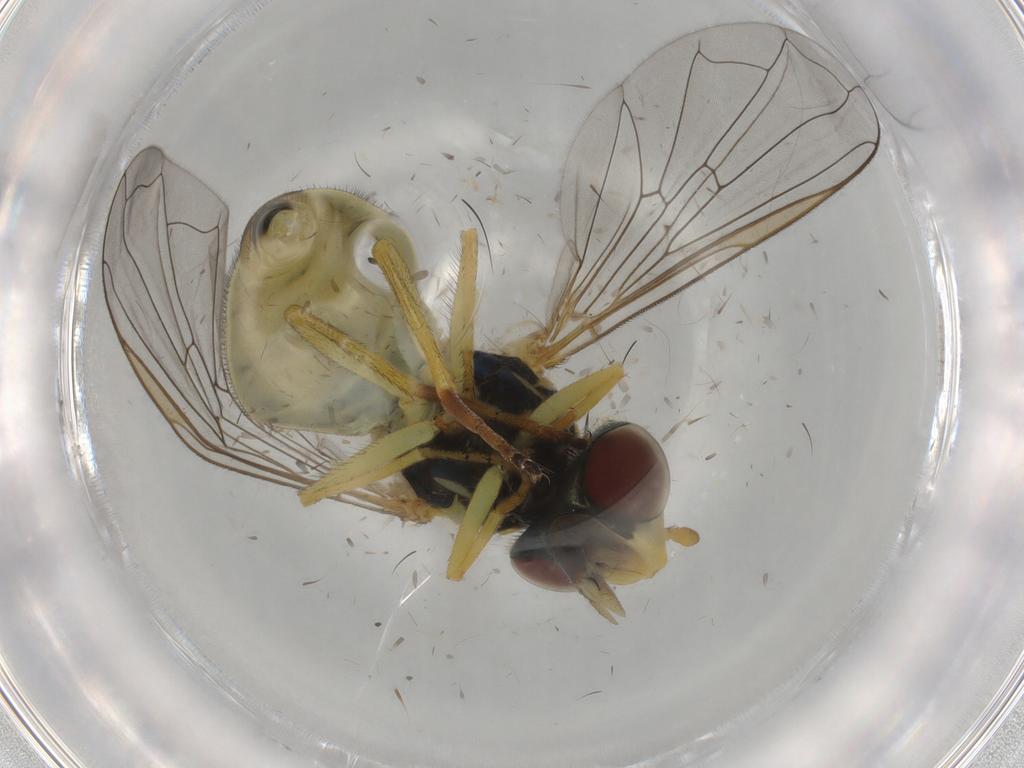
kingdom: Animalia
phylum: Arthropoda
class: Insecta
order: Diptera
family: Syrphidae
